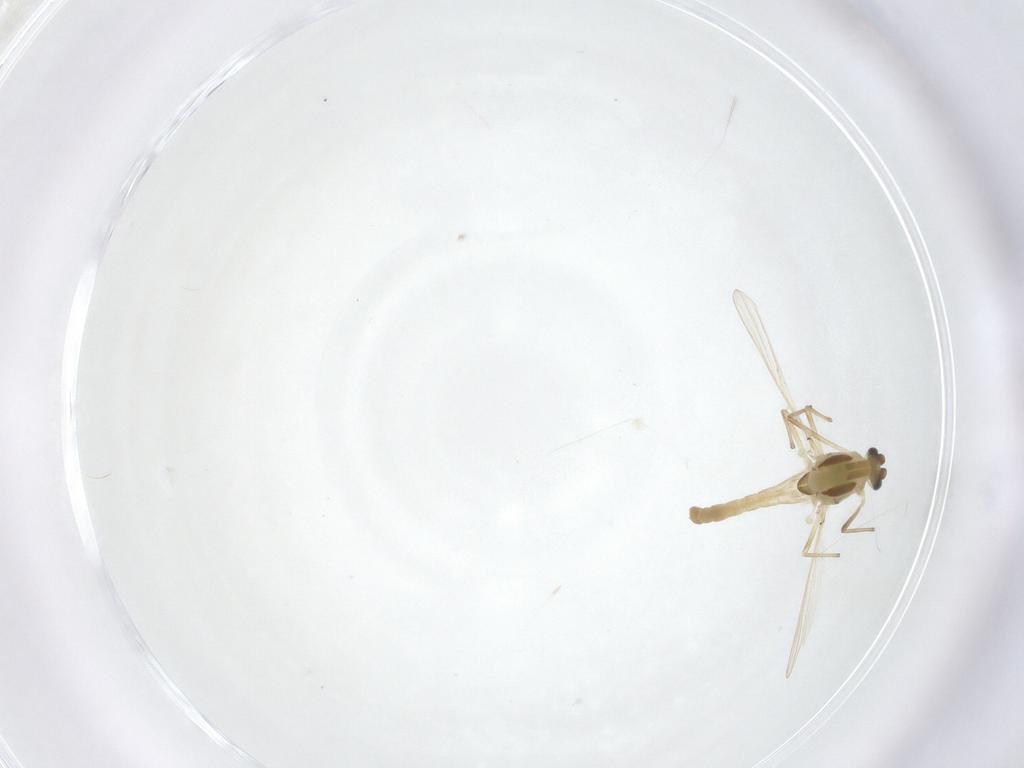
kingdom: Animalia
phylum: Arthropoda
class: Insecta
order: Diptera
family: Chironomidae
